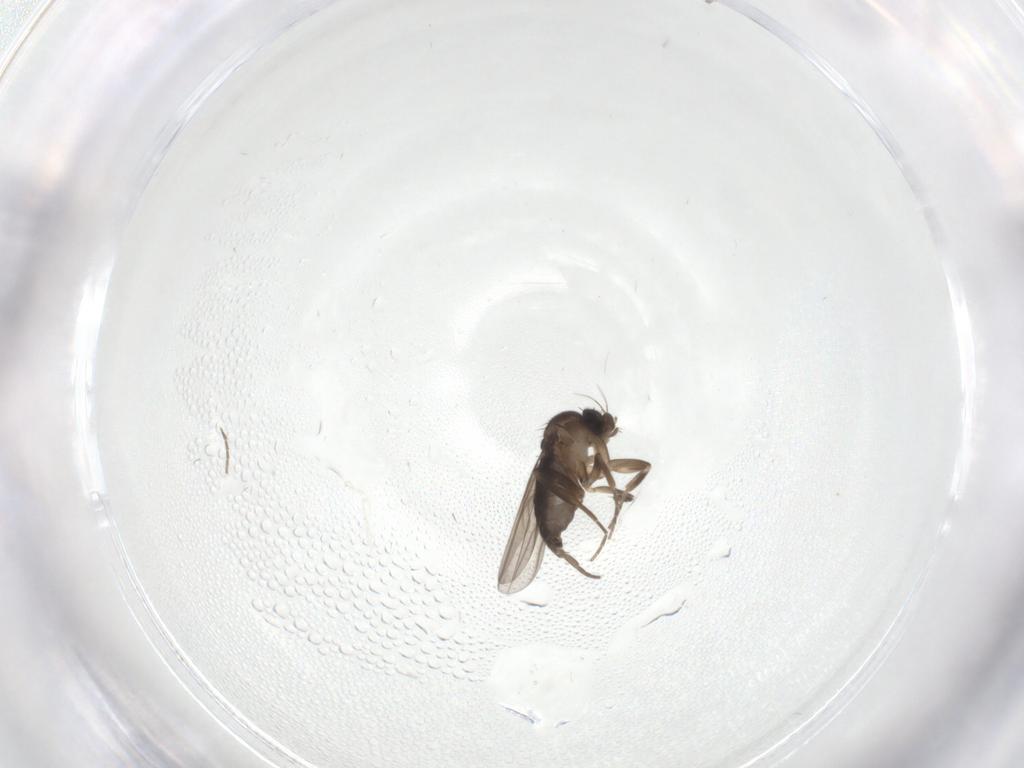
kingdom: Animalia
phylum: Arthropoda
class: Insecta
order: Diptera
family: Phoridae
